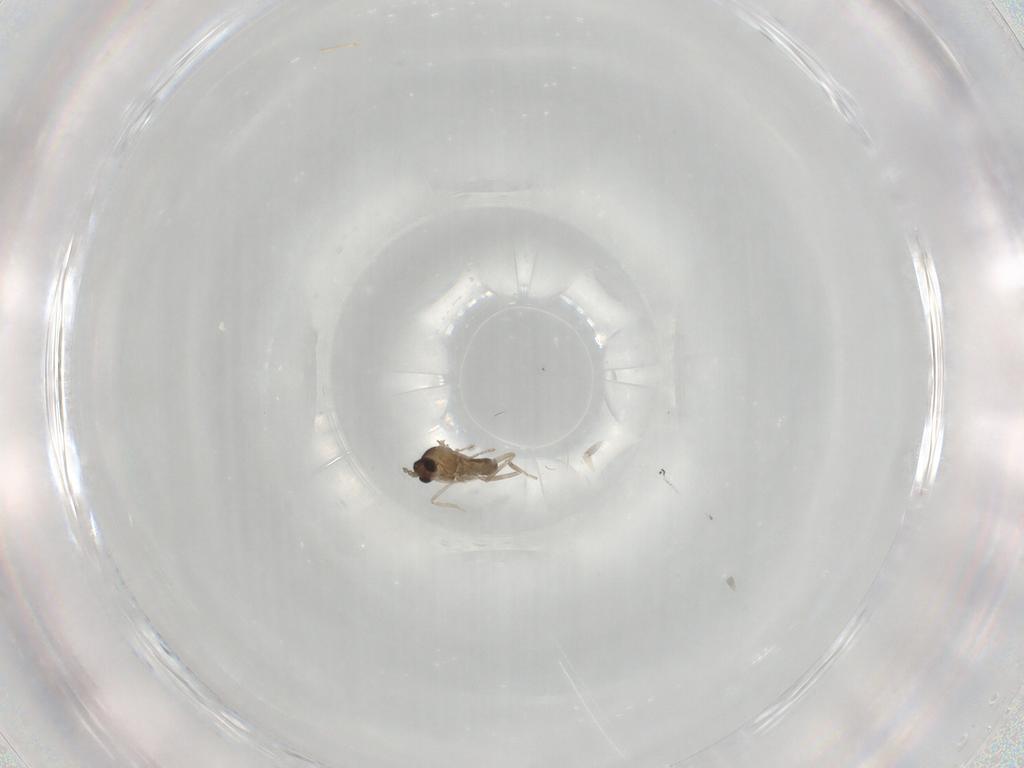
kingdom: Animalia
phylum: Arthropoda
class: Insecta
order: Diptera
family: Cecidomyiidae
